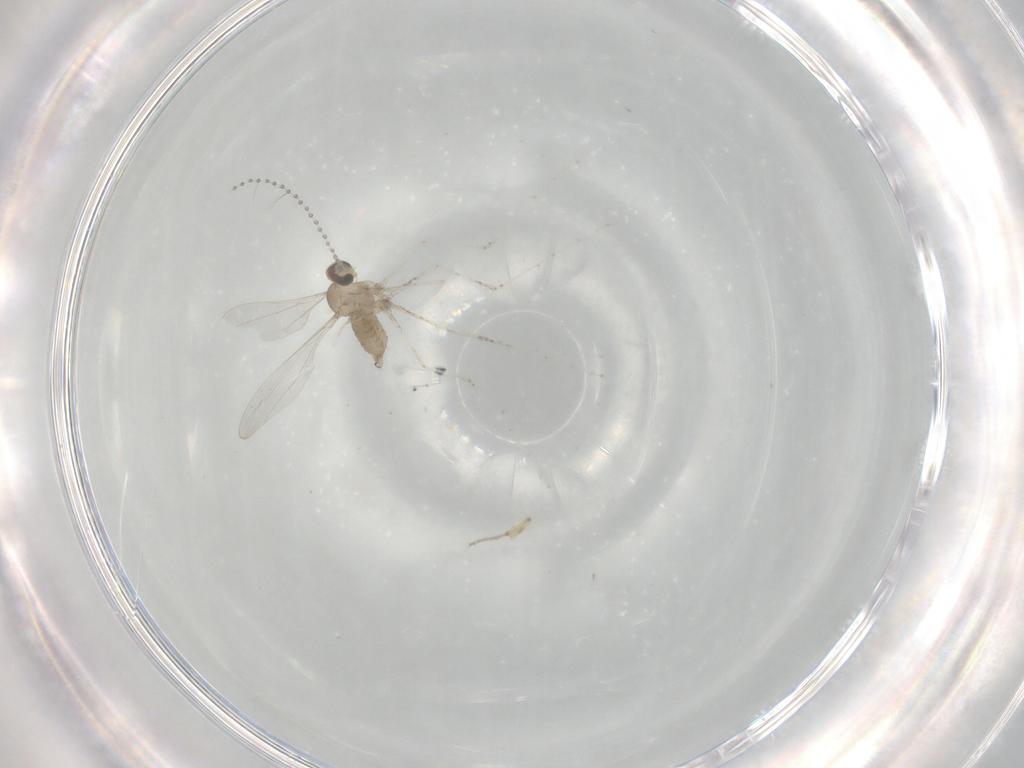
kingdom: Animalia
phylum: Arthropoda
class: Insecta
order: Diptera
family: Cecidomyiidae
